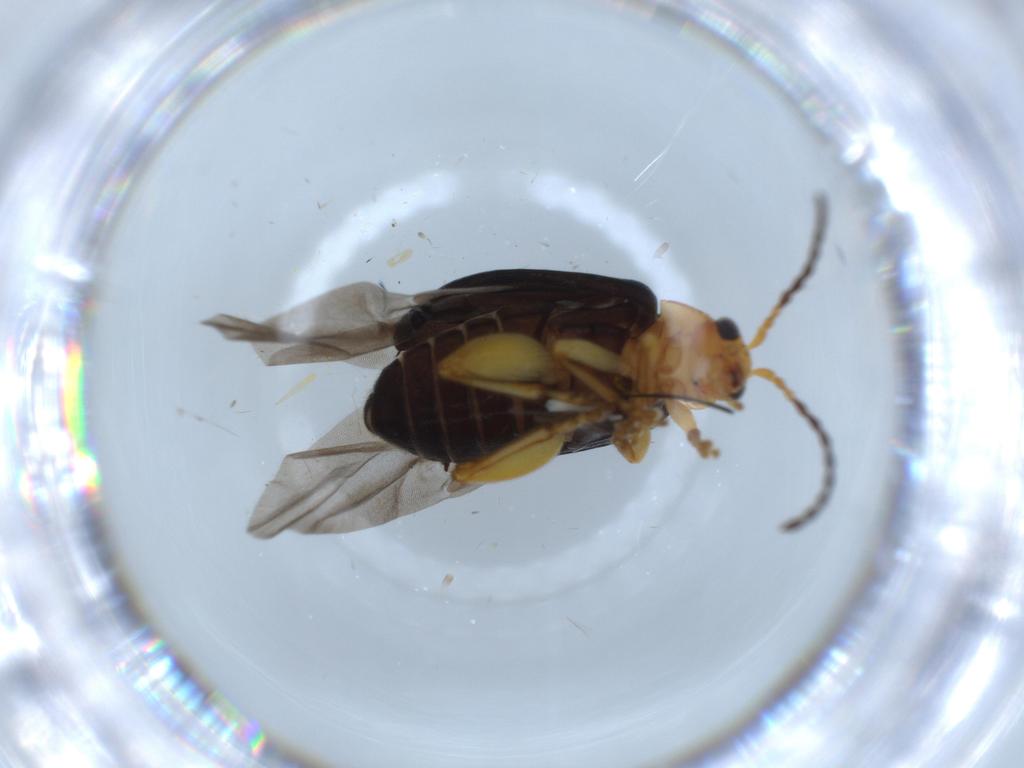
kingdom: Animalia
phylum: Arthropoda
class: Insecta
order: Coleoptera
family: Chrysomelidae
